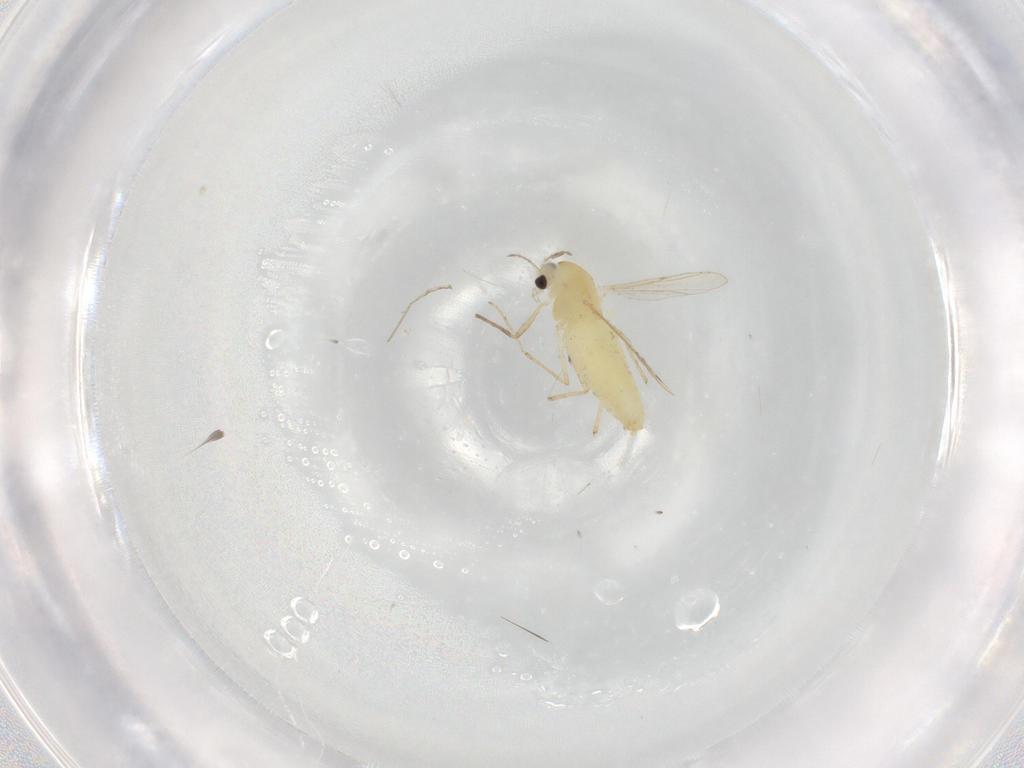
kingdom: Animalia
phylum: Arthropoda
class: Insecta
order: Diptera
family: Chironomidae
